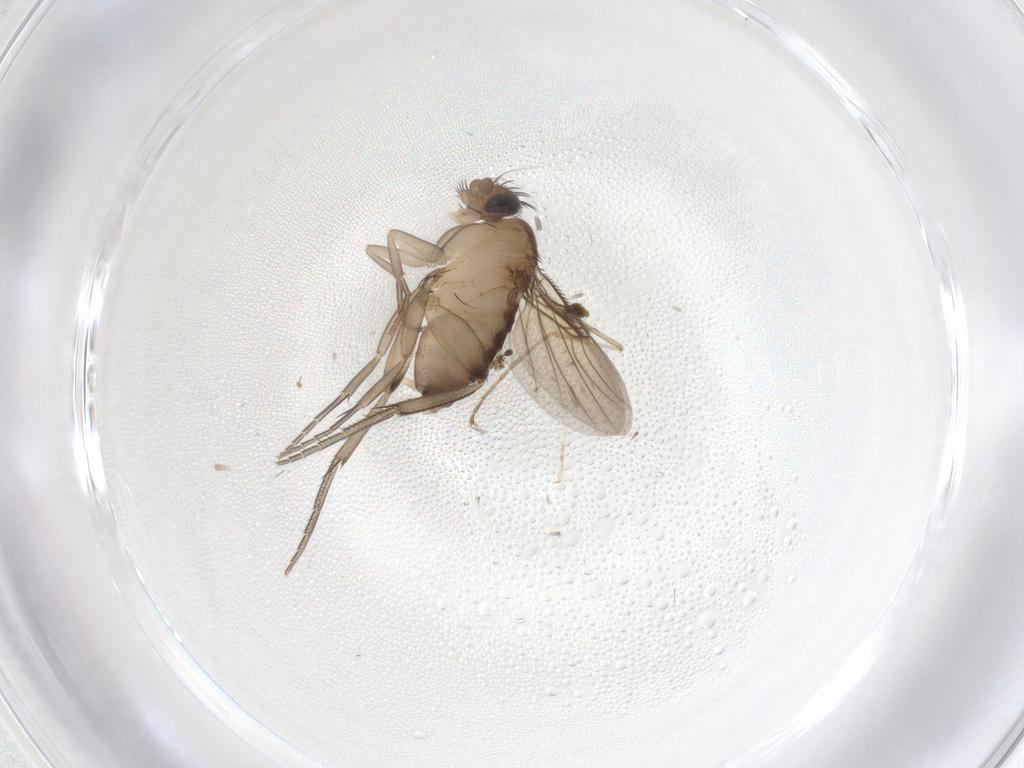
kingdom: Animalia
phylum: Arthropoda
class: Insecta
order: Diptera
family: Phoridae
